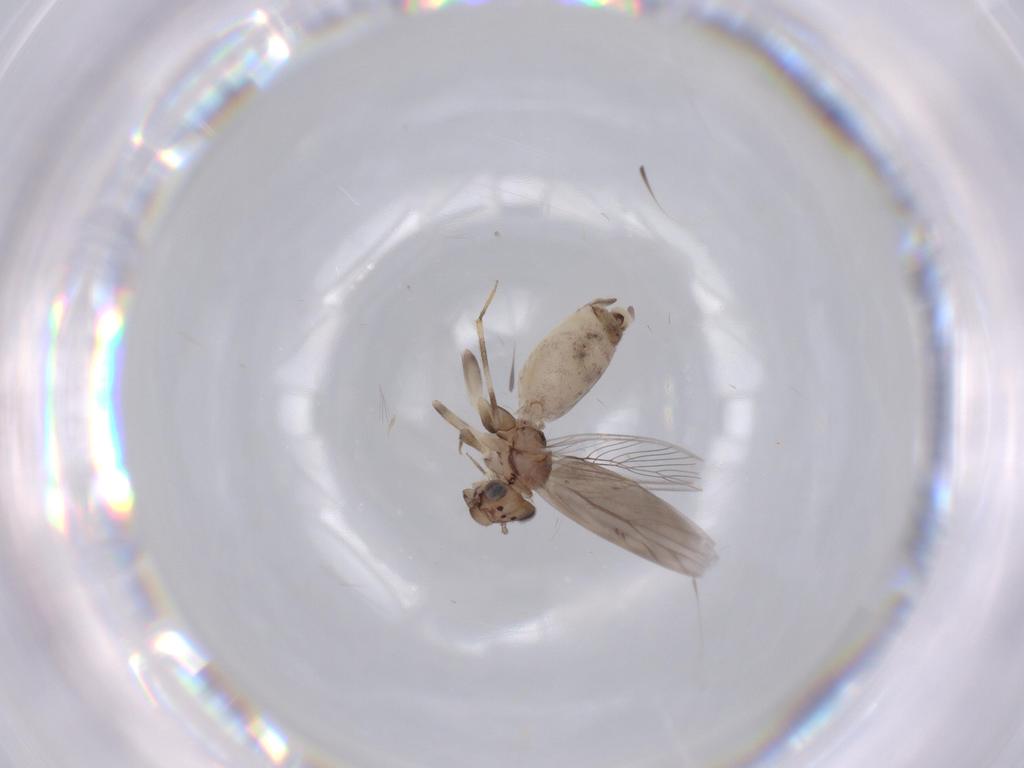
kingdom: Animalia
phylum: Arthropoda
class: Insecta
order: Psocodea
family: Lepidopsocidae
